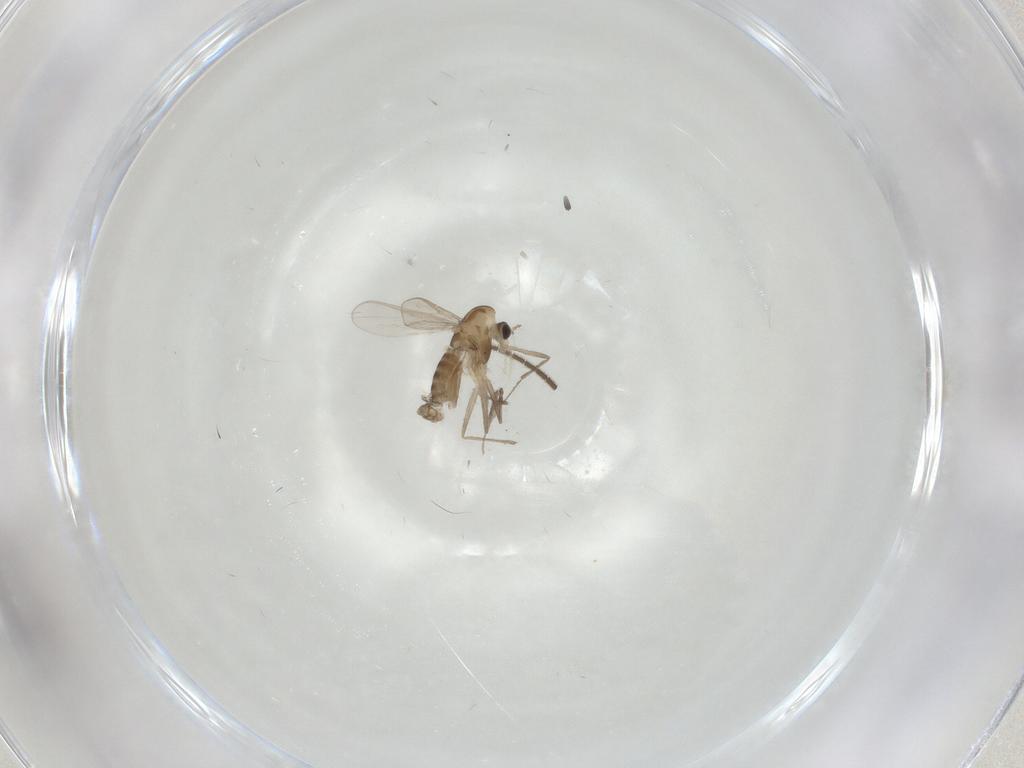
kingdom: Animalia
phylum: Arthropoda
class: Insecta
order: Diptera
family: Chironomidae
